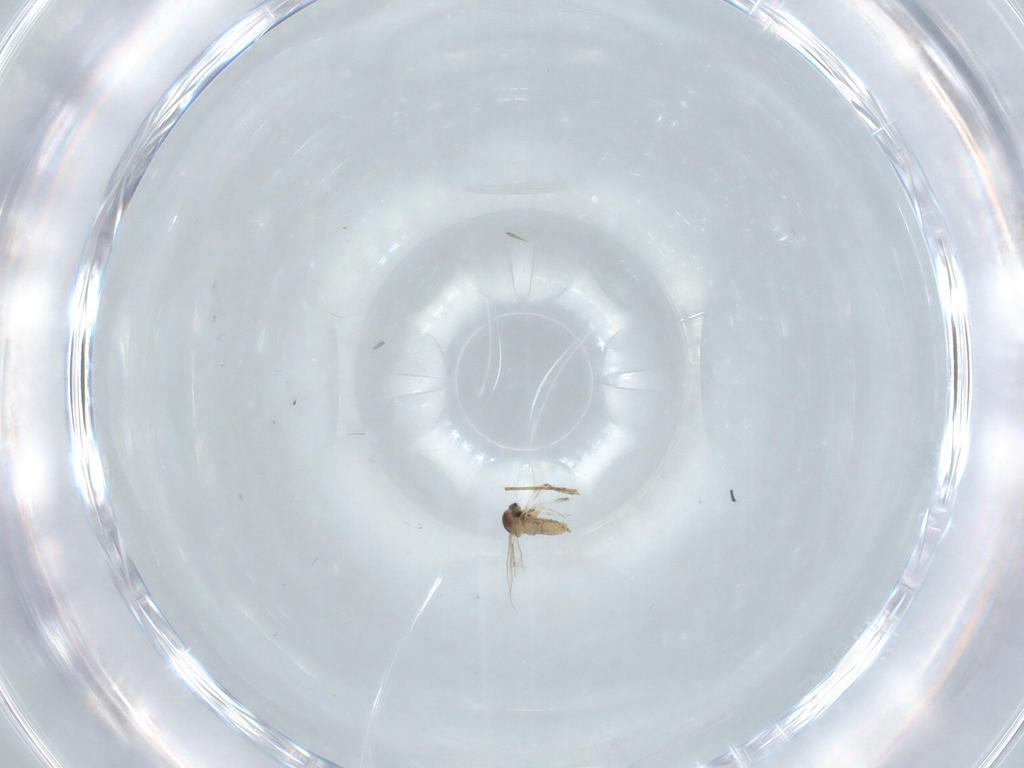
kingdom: Animalia
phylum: Arthropoda
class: Insecta
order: Diptera
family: Cecidomyiidae
